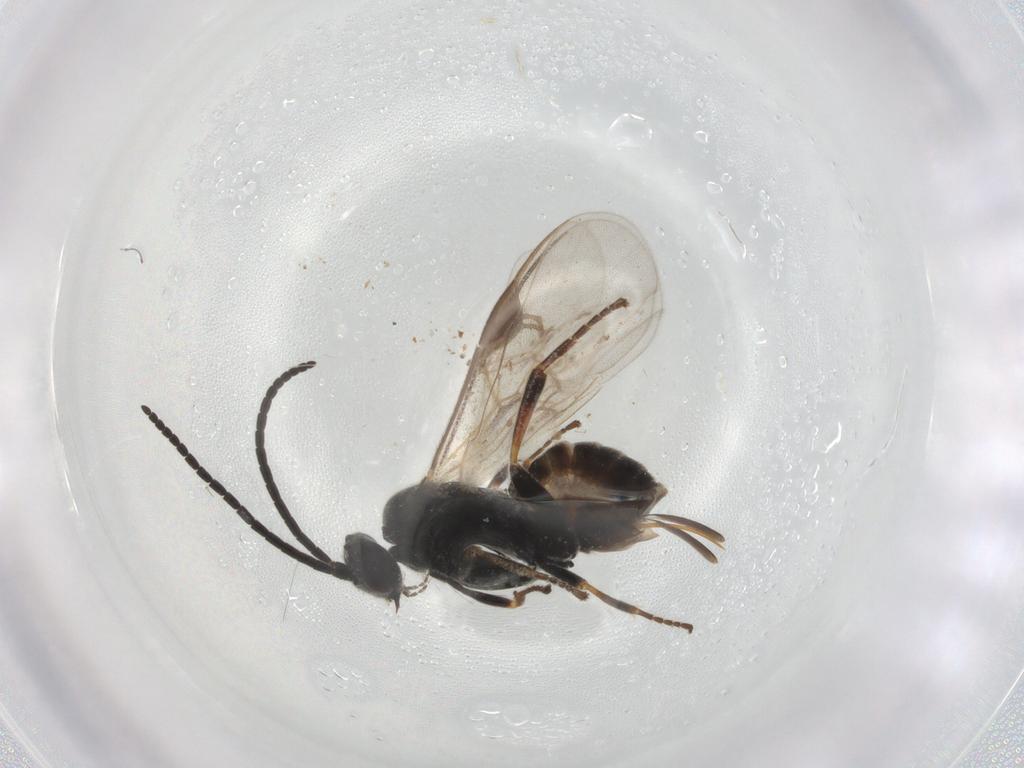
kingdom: Animalia
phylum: Arthropoda
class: Insecta
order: Hymenoptera
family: Braconidae
